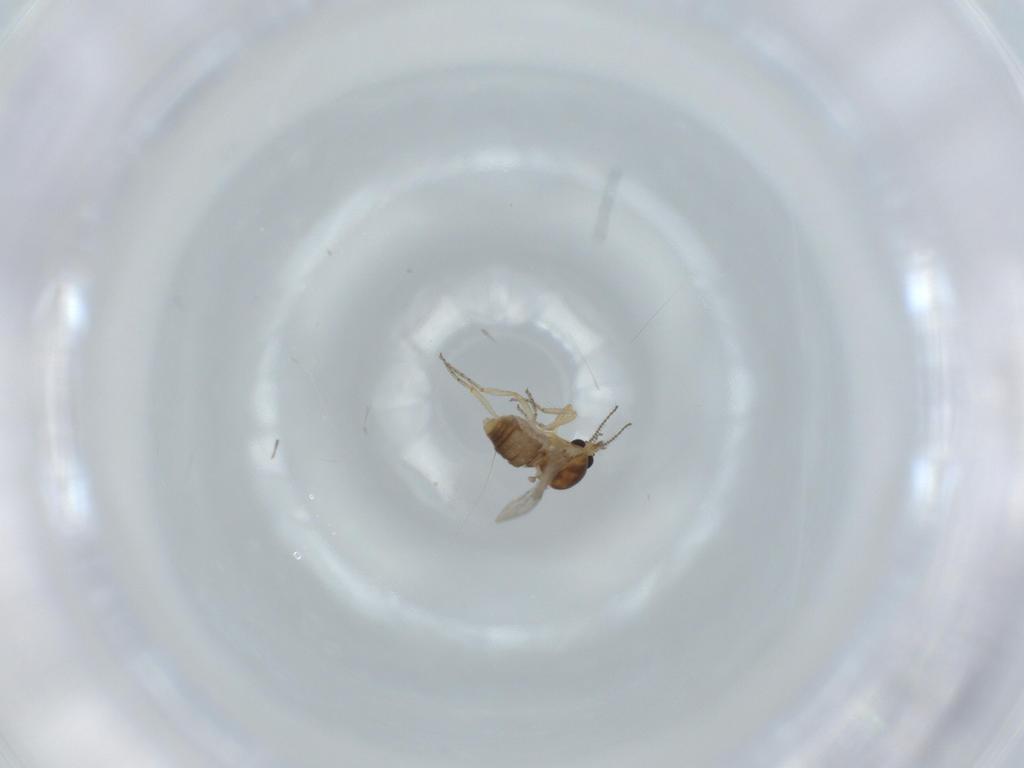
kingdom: Animalia
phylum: Arthropoda
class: Insecta
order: Diptera
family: Ceratopogonidae
